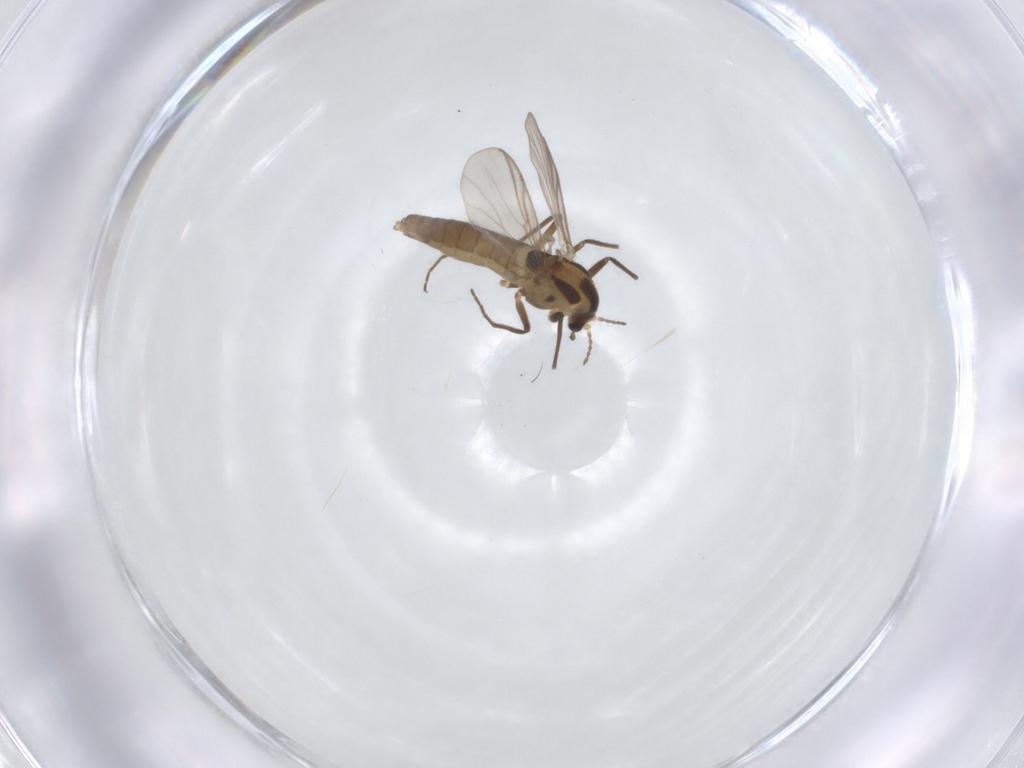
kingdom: Animalia
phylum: Arthropoda
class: Insecta
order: Diptera
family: Chironomidae
